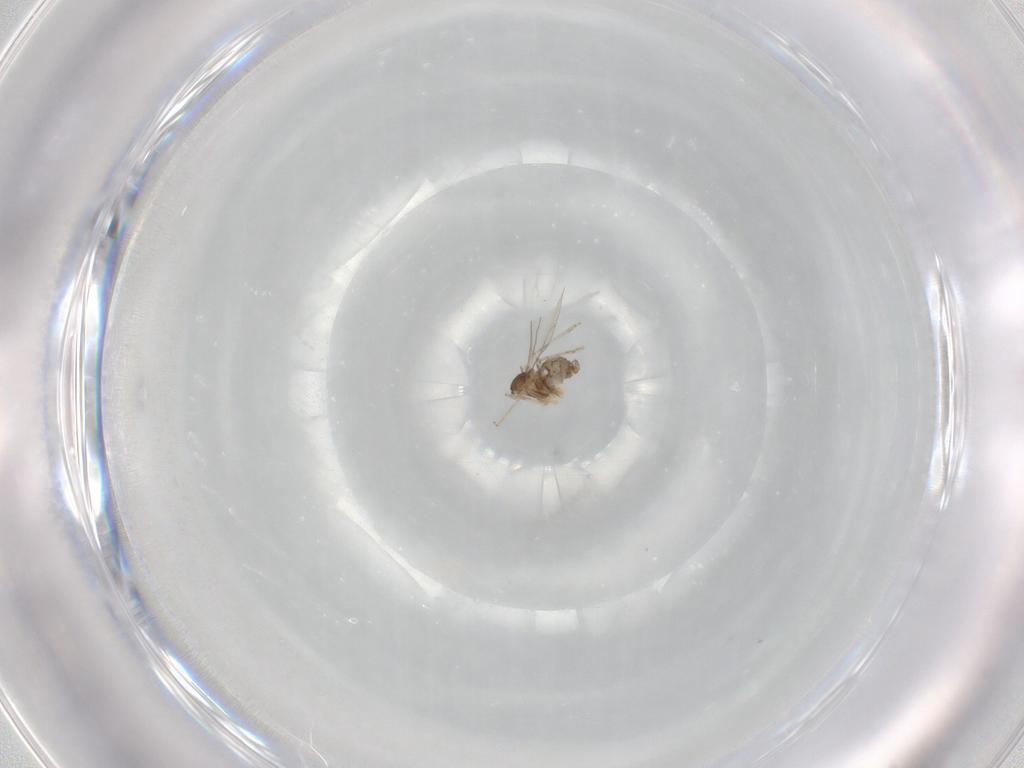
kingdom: Animalia
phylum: Arthropoda
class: Insecta
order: Diptera
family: Cecidomyiidae
